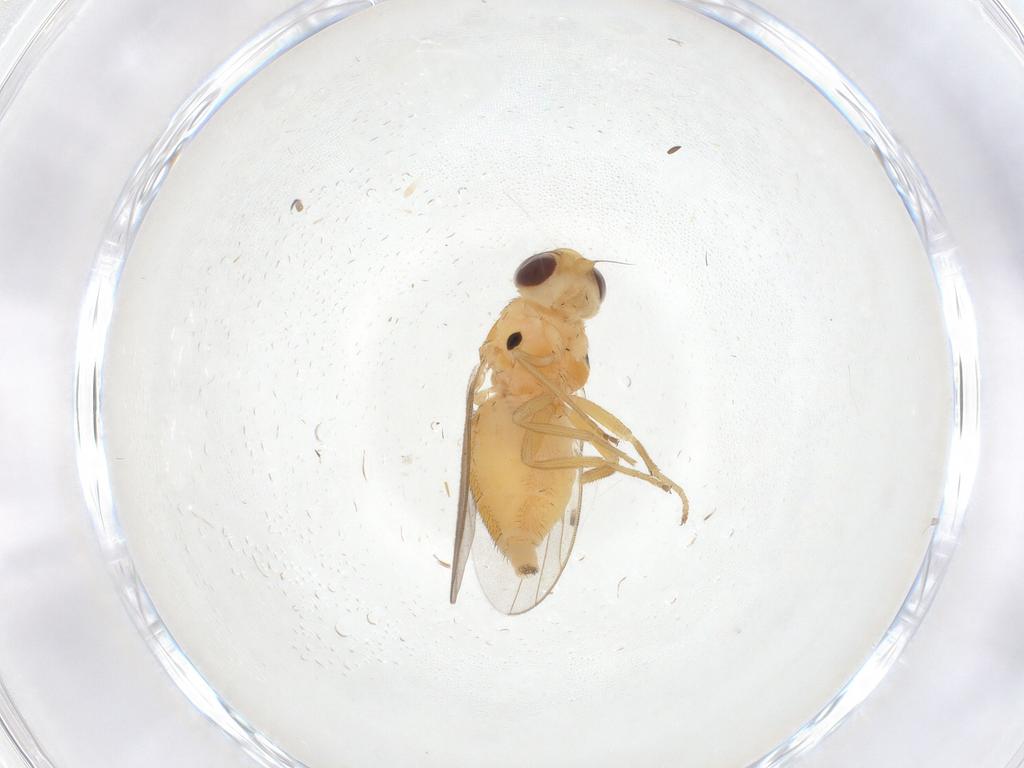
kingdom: Animalia
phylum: Arthropoda
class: Insecta
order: Diptera
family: Chloropidae
